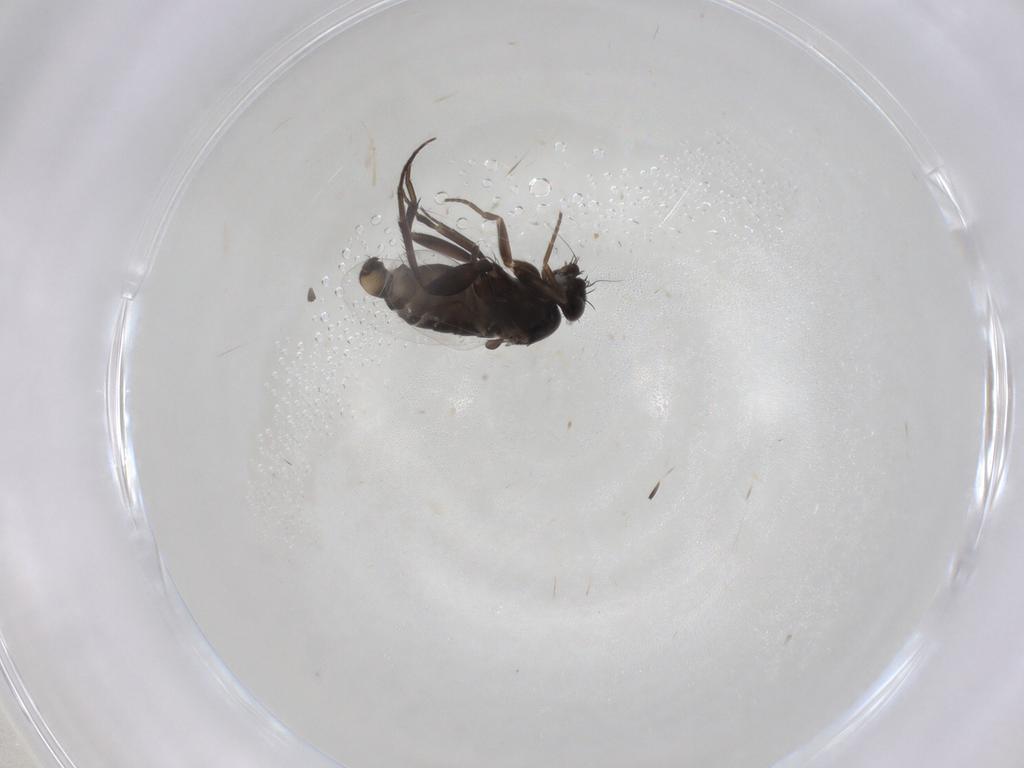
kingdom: Animalia
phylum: Arthropoda
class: Insecta
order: Diptera
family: Phoridae
